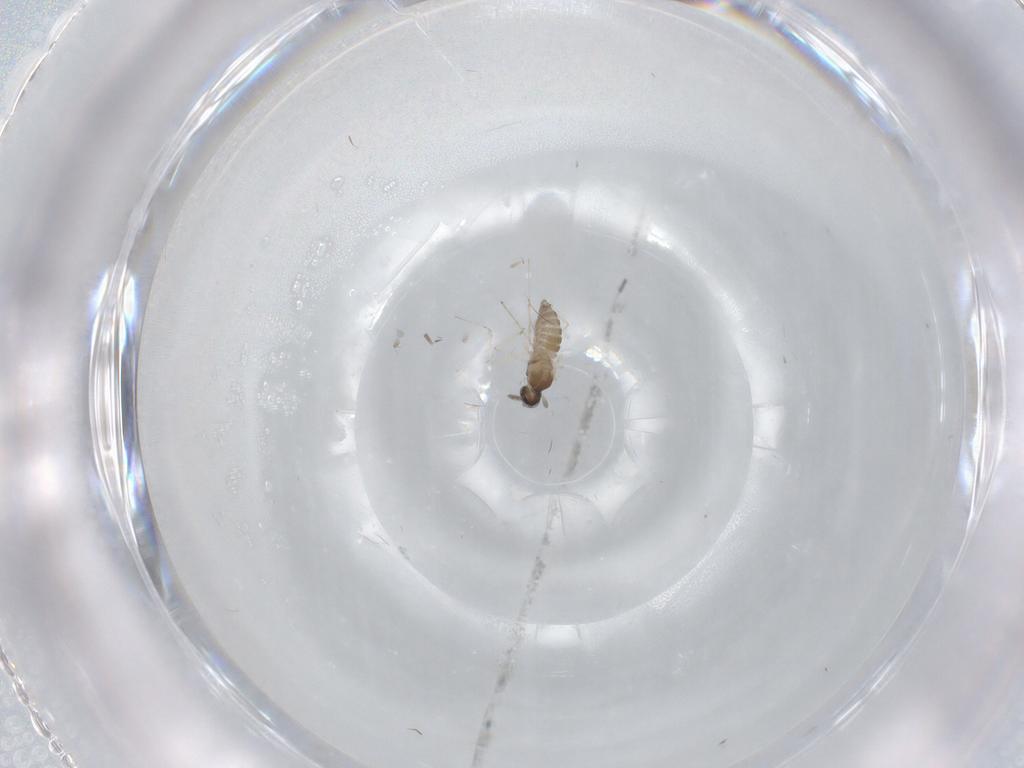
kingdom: Animalia
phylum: Arthropoda
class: Insecta
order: Diptera
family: Cecidomyiidae
